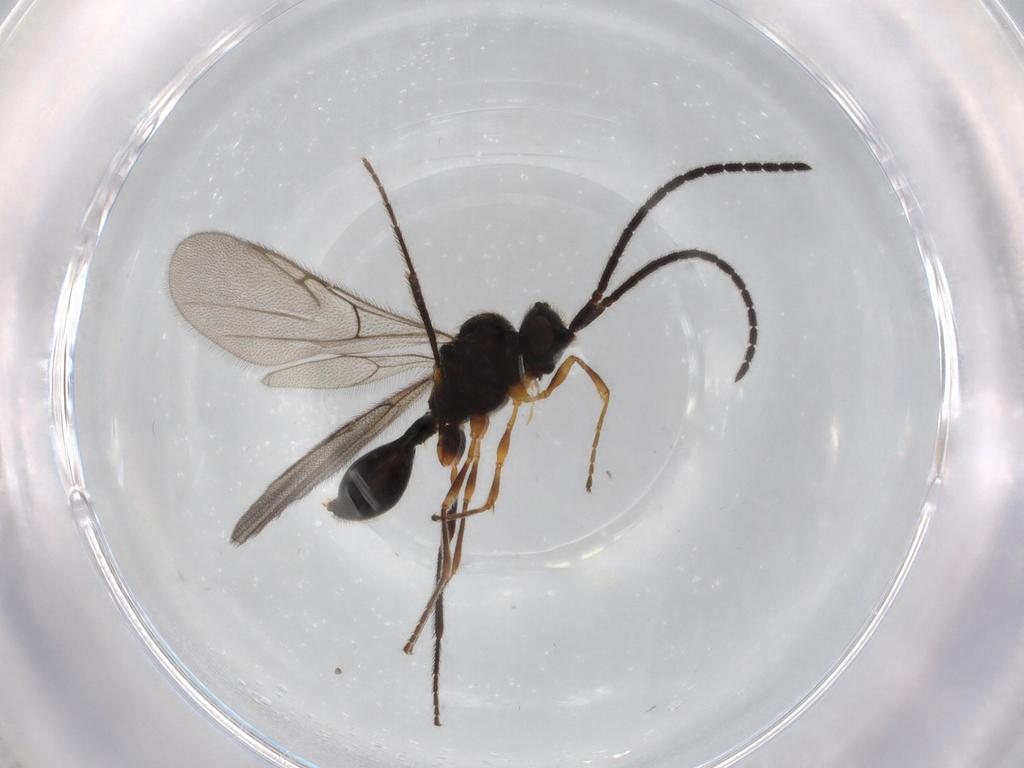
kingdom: Animalia
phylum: Arthropoda
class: Insecta
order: Hymenoptera
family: Diapriidae
